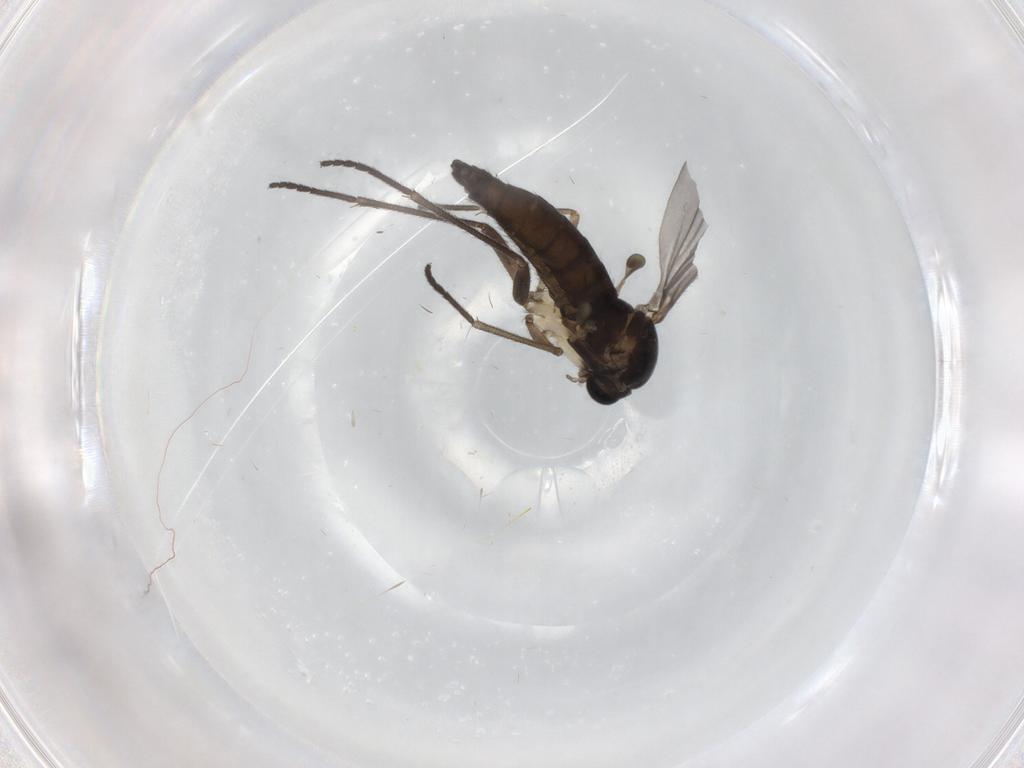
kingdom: Animalia
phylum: Arthropoda
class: Insecta
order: Diptera
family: Sciaridae
